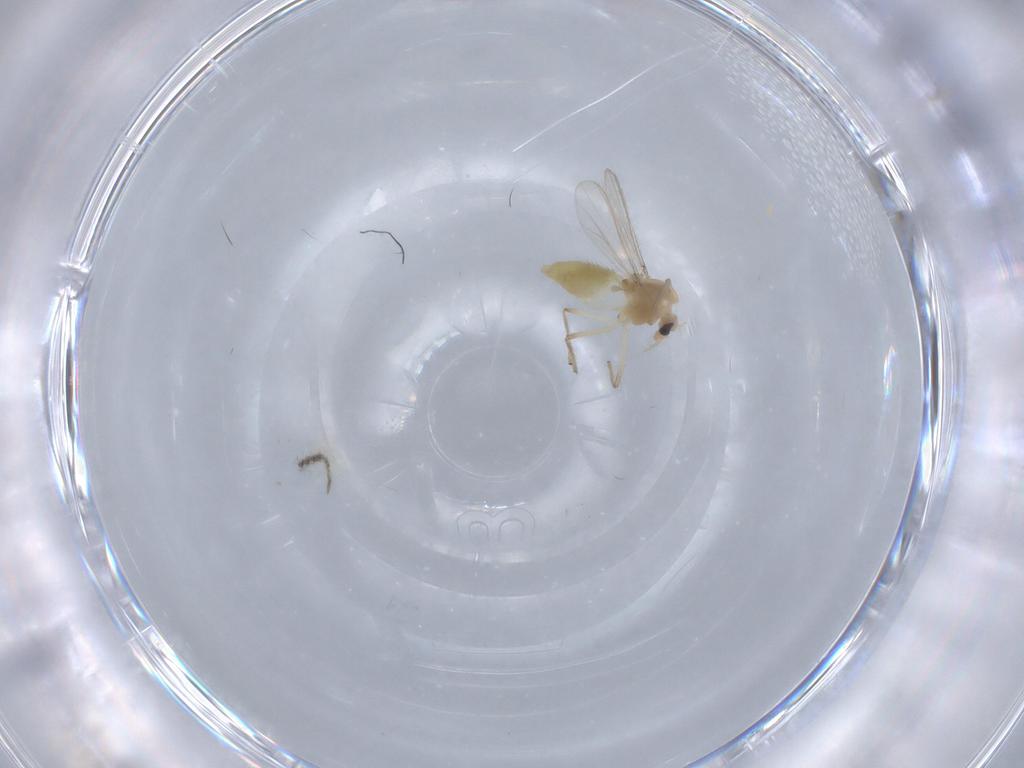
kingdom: Animalia
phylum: Arthropoda
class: Insecta
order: Diptera
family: Chironomidae
